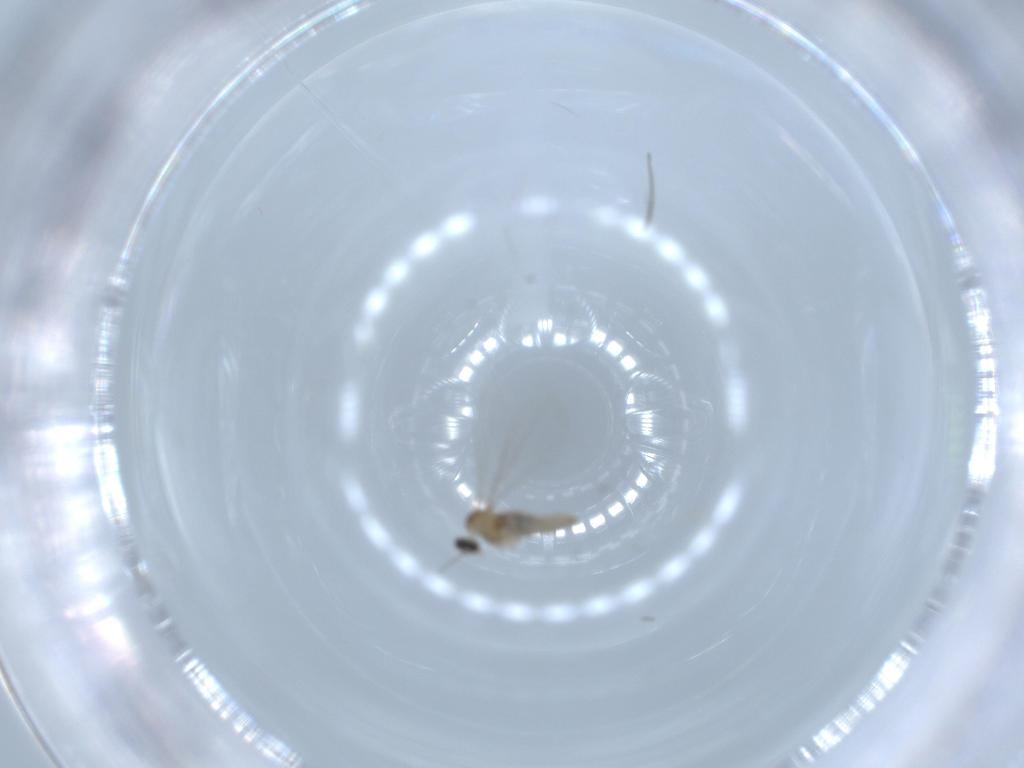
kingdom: Animalia
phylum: Arthropoda
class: Insecta
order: Diptera
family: Cecidomyiidae
